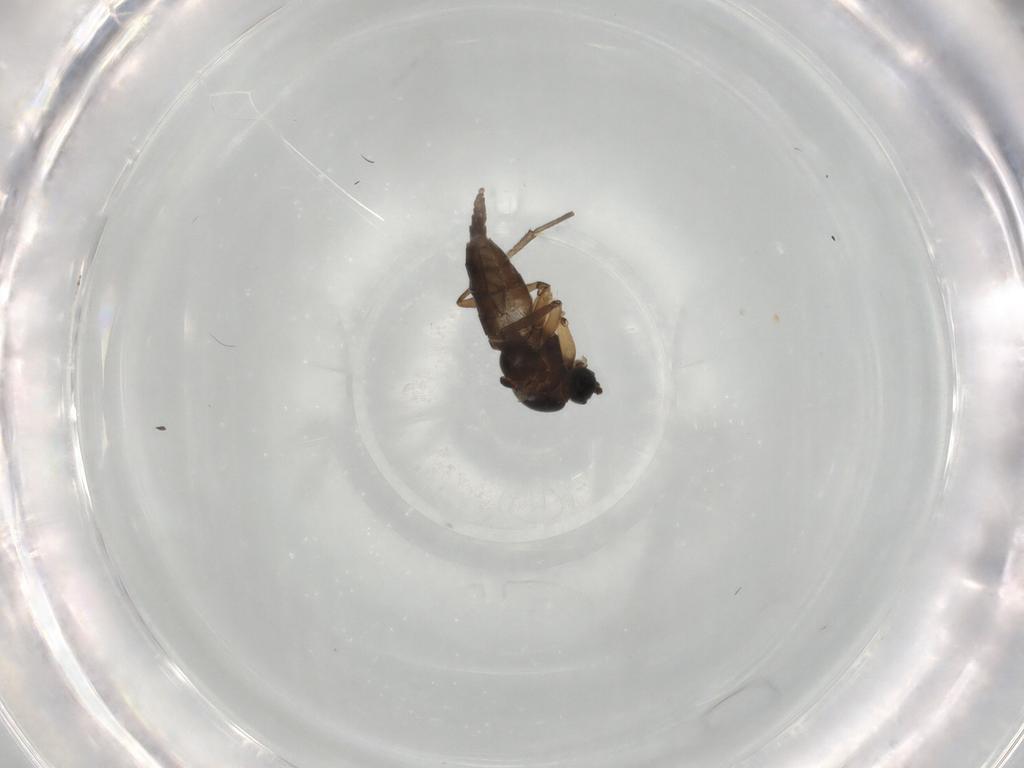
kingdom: Animalia
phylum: Arthropoda
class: Insecta
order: Diptera
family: Sciaridae
